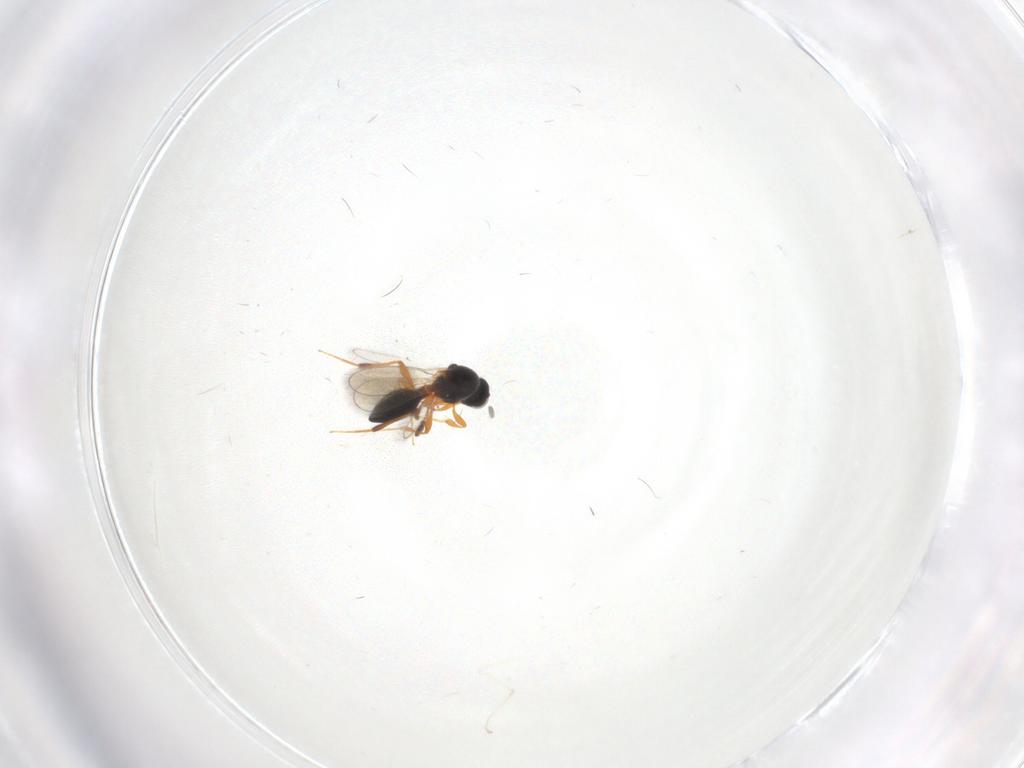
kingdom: Animalia
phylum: Arthropoda
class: Insecta
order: Hymenoptera
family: Platygastridae
